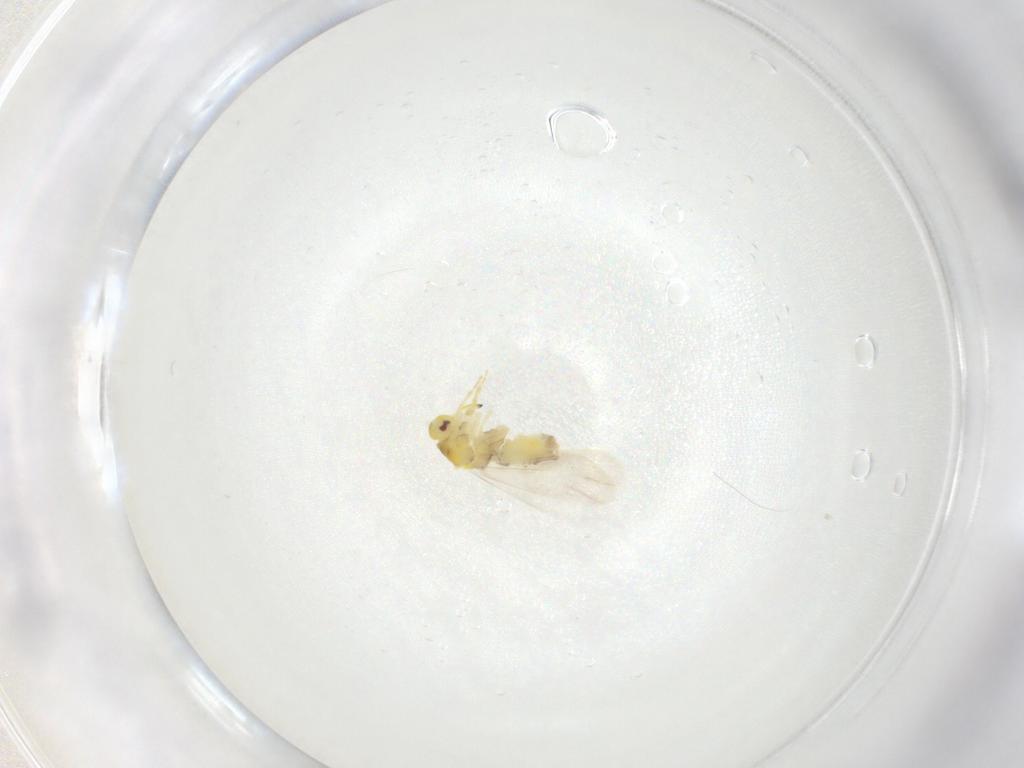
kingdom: Animalia
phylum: Arthropoda
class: Insecta
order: Hemiptera
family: Aleyrodidae
